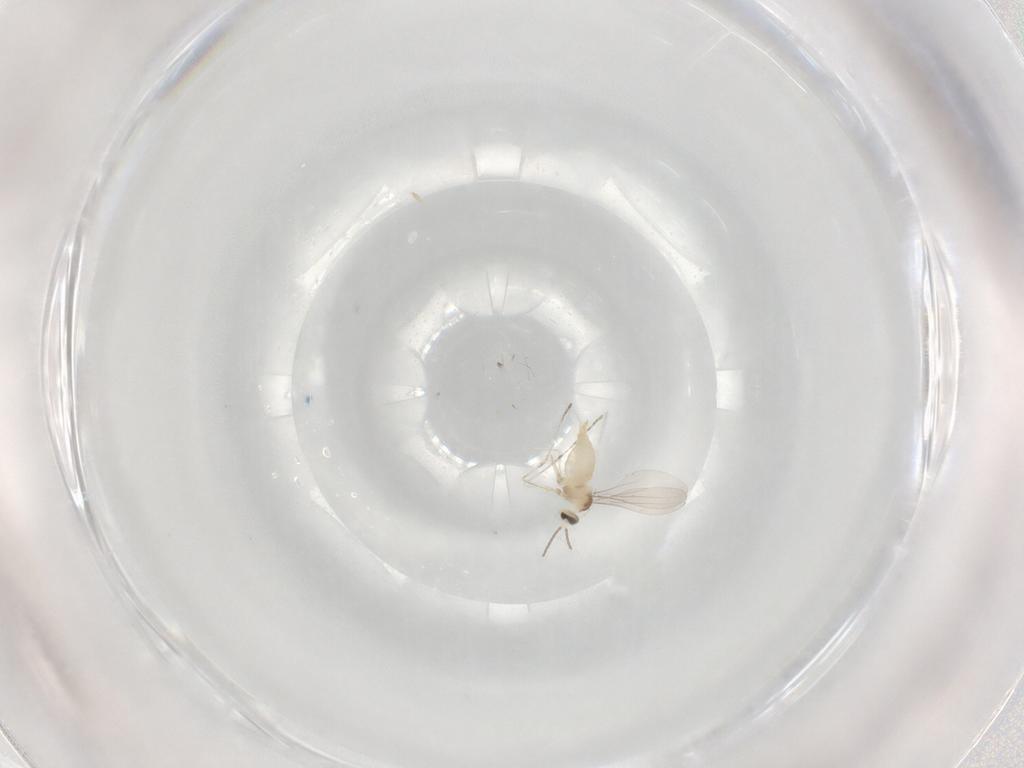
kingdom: Animalia
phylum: Arthropoda
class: Insecta
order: Diptera
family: Cecidomyiidae
